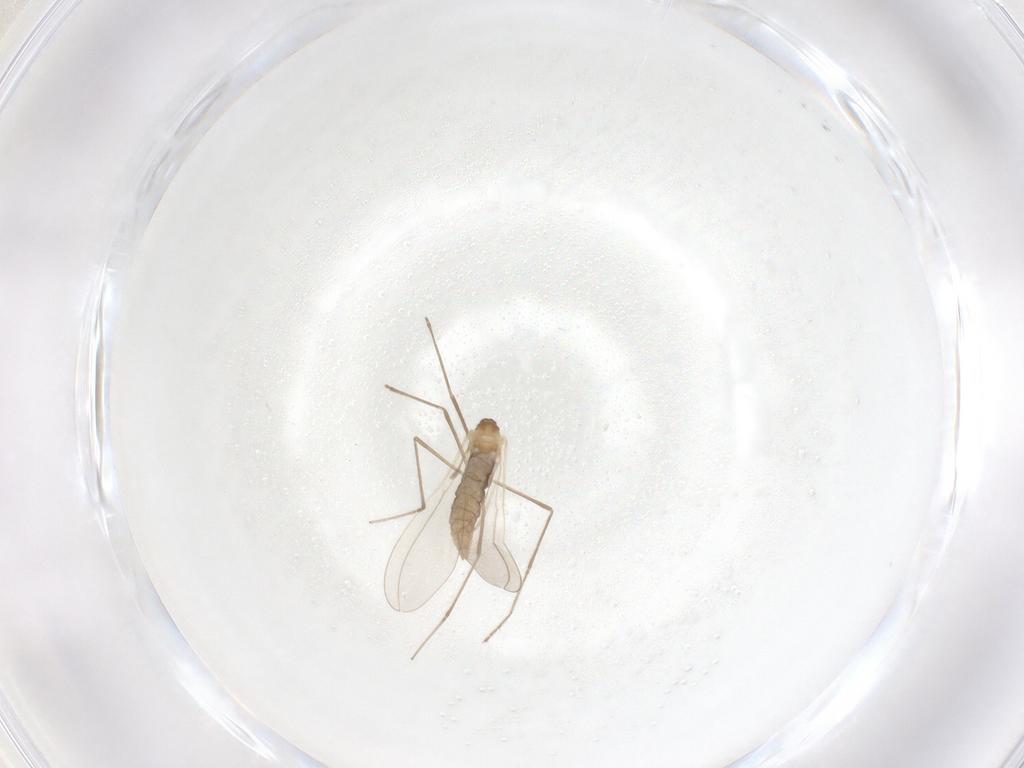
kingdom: Animalia
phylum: Arthropoda
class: Insecta
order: Diptera
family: Cecidomyiidae
